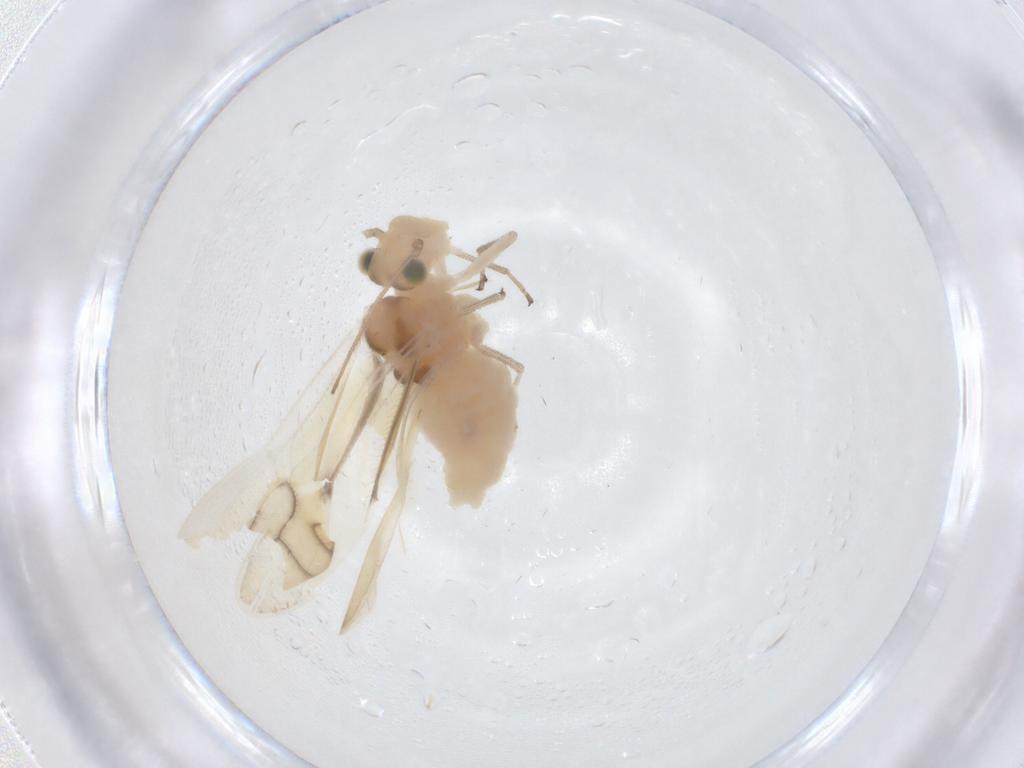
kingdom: Animalia
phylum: Arthropoda
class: Insecta
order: Psocodea
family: Caeciliusidae
